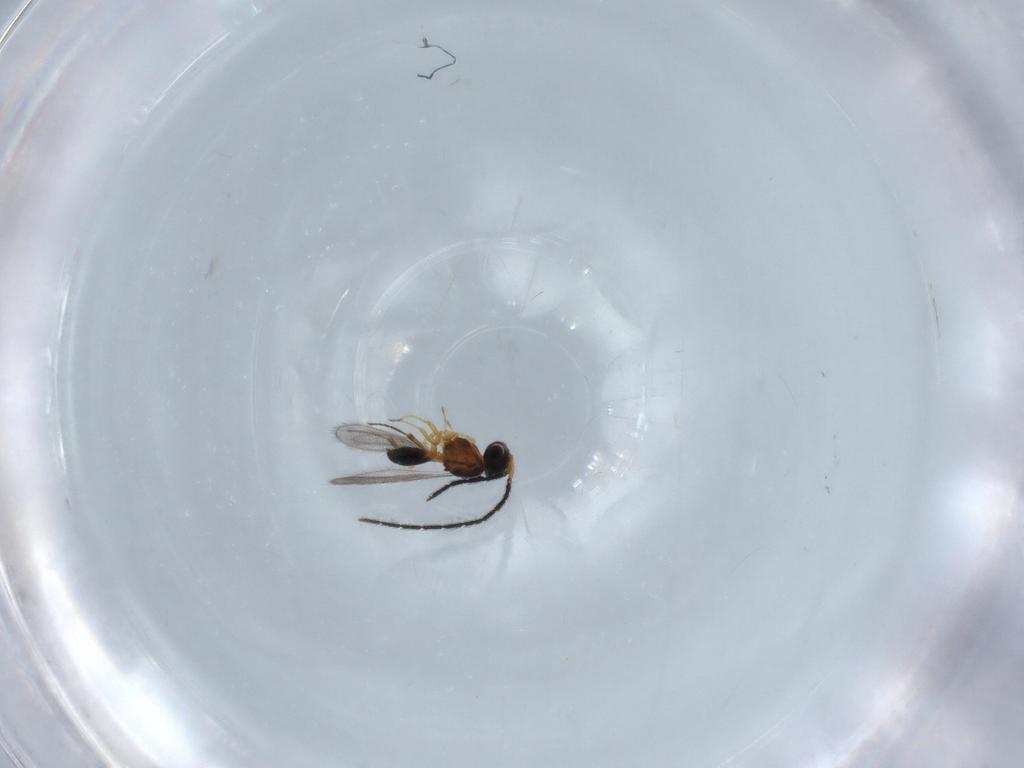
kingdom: Animalia
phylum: Arthropoda
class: Insecta
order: Hymenoptera
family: Scelionidae
